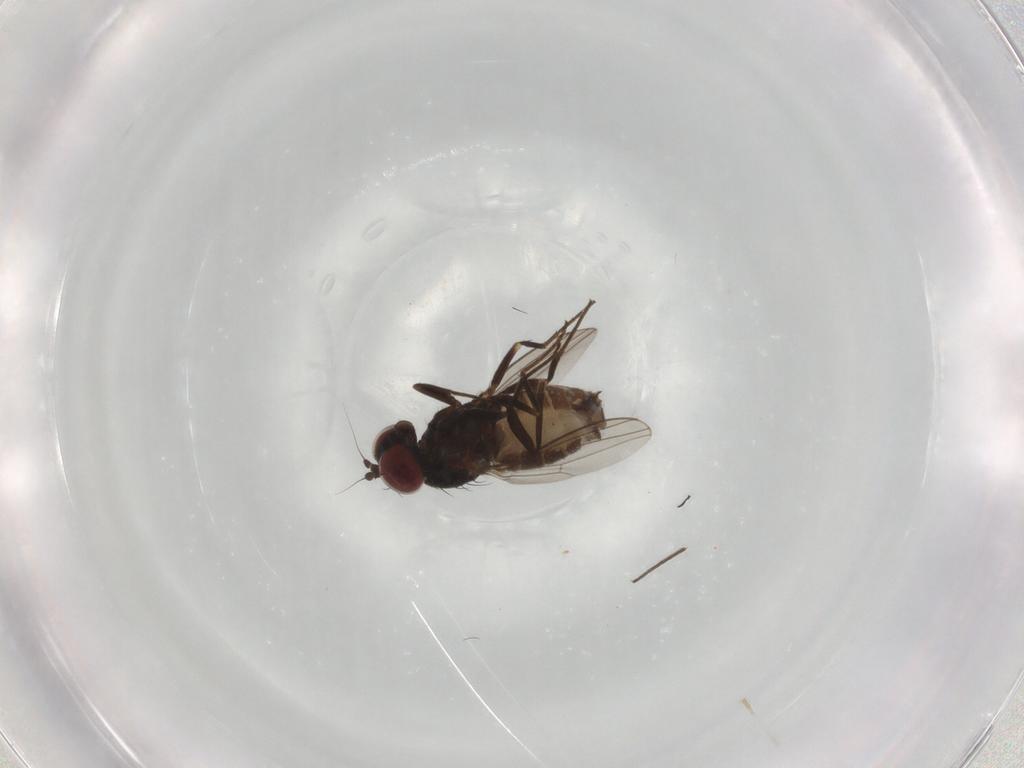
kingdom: Animalia
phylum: Arthropoda
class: Insecta
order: Diptera
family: Dolichopodidae
